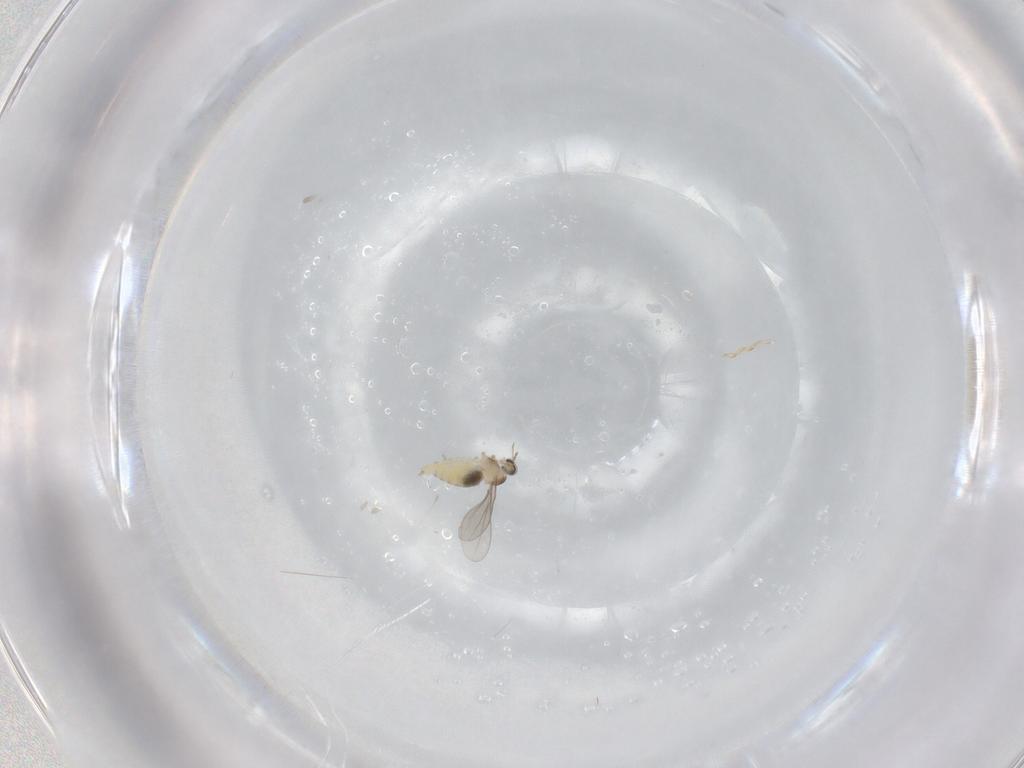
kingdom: Animalia
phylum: Arthropoda
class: Insecta
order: Diptera
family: Cecidomyiidae
